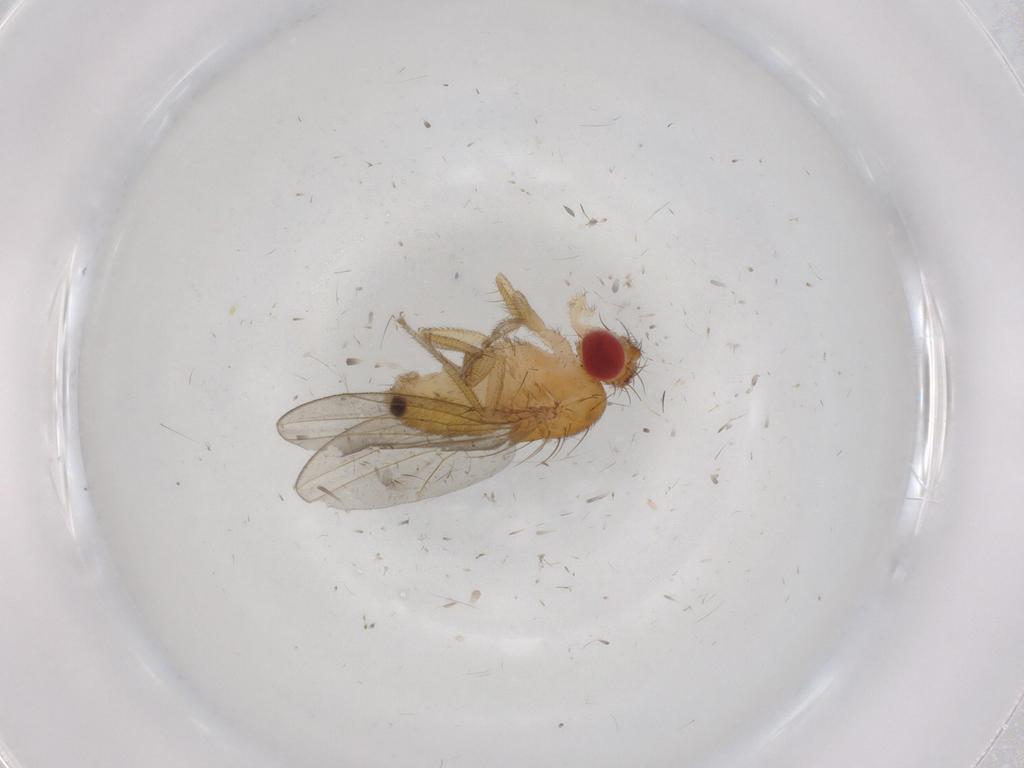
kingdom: Animalia
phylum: Arthropoda
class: Insecta
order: Diptera
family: Drosophilidae
